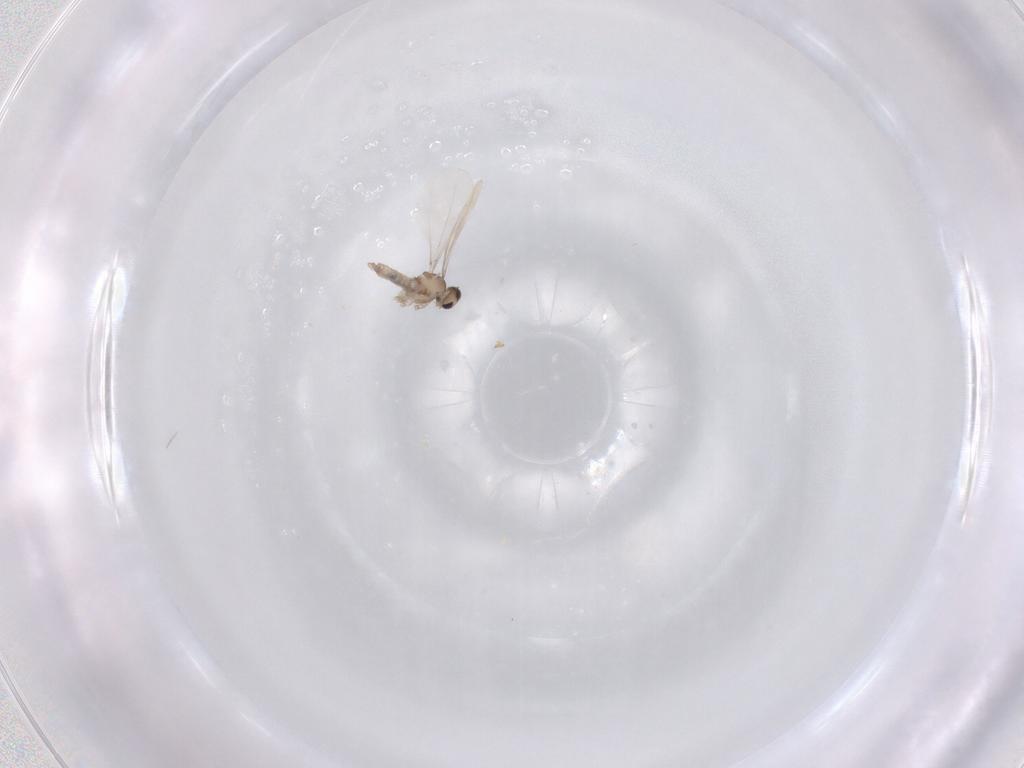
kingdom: Animalia
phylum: Arthropoda
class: Insecta
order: Diptera
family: Cecidomyiidae
